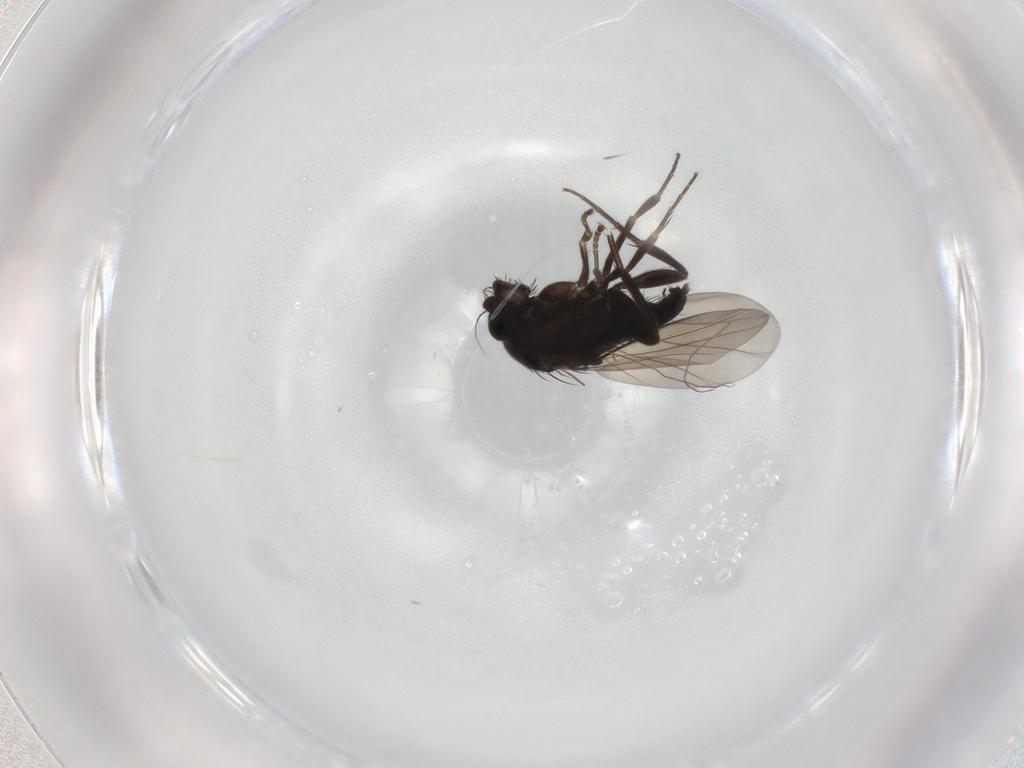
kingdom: Animalia
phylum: Arthropoda
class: Insecta
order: Diptera
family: Phoridae
